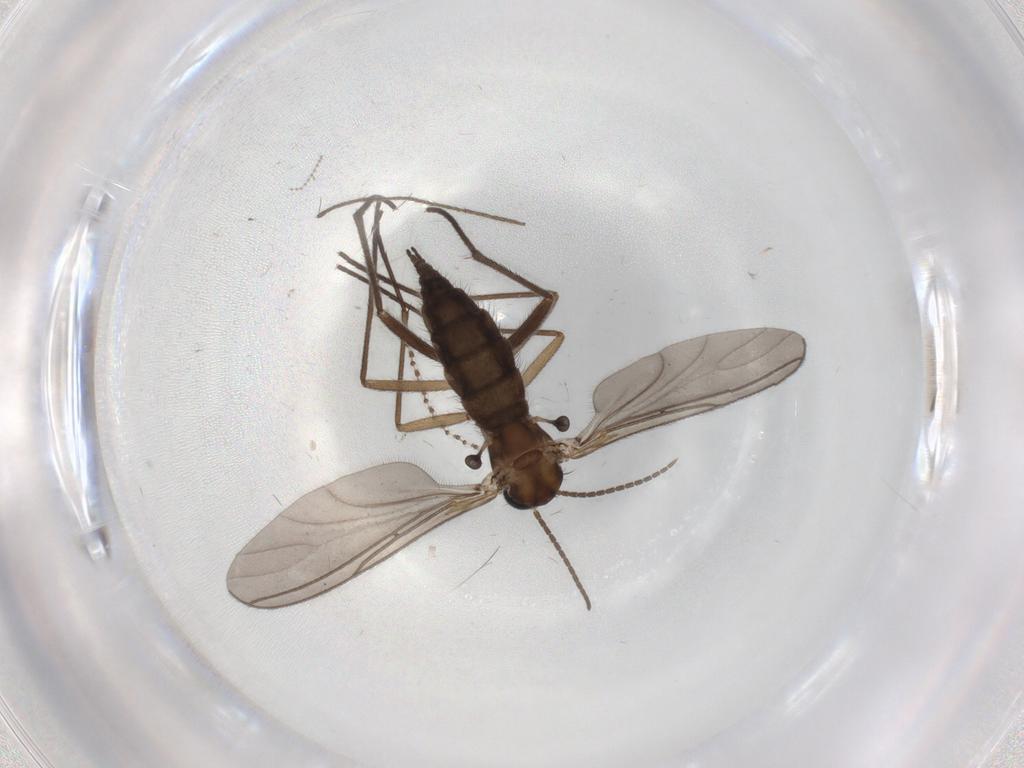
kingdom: Animalia
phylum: Arthropoda
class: Insecta
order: Diptera
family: Sciaridae
